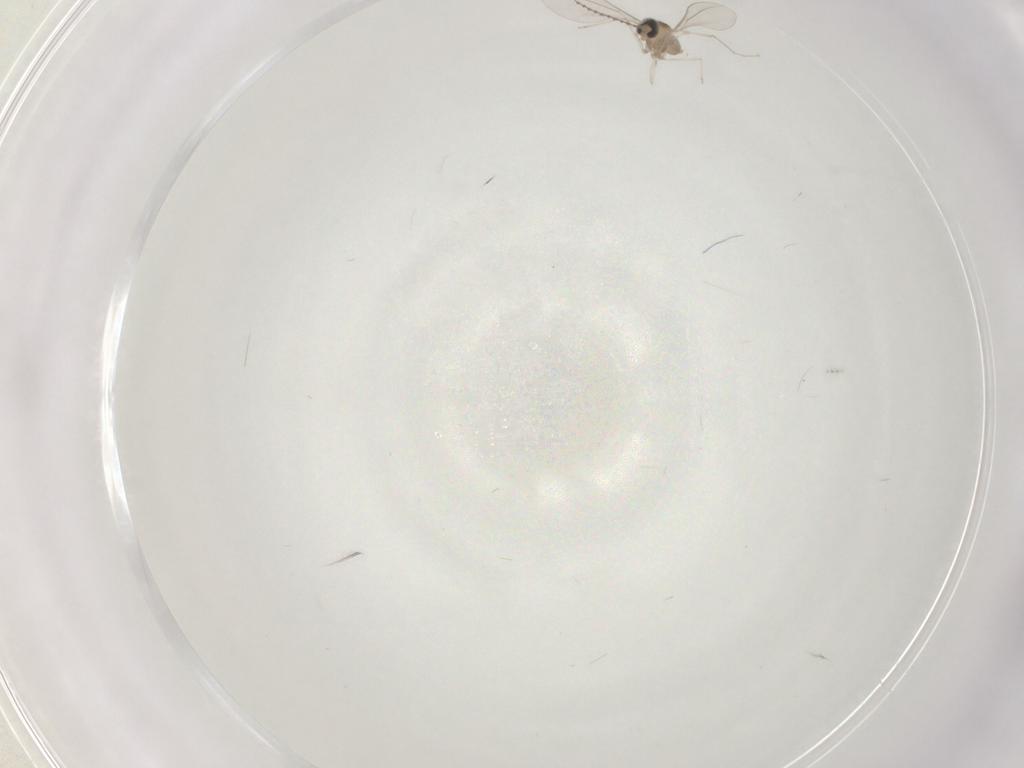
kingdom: Animalia
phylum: Arthropoda
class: Insecta
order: Diptera
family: Cecidomyiidae
